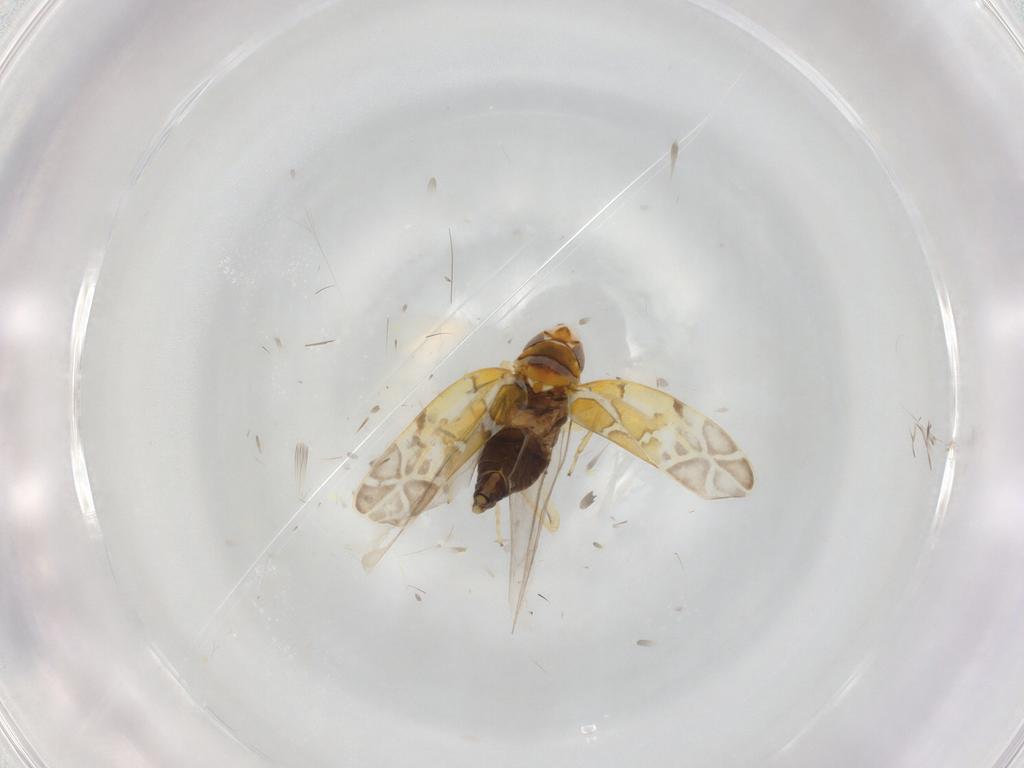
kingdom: Animalia
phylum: Arthropoda
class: Insecta
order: Hemiptera
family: Cicadellidae
